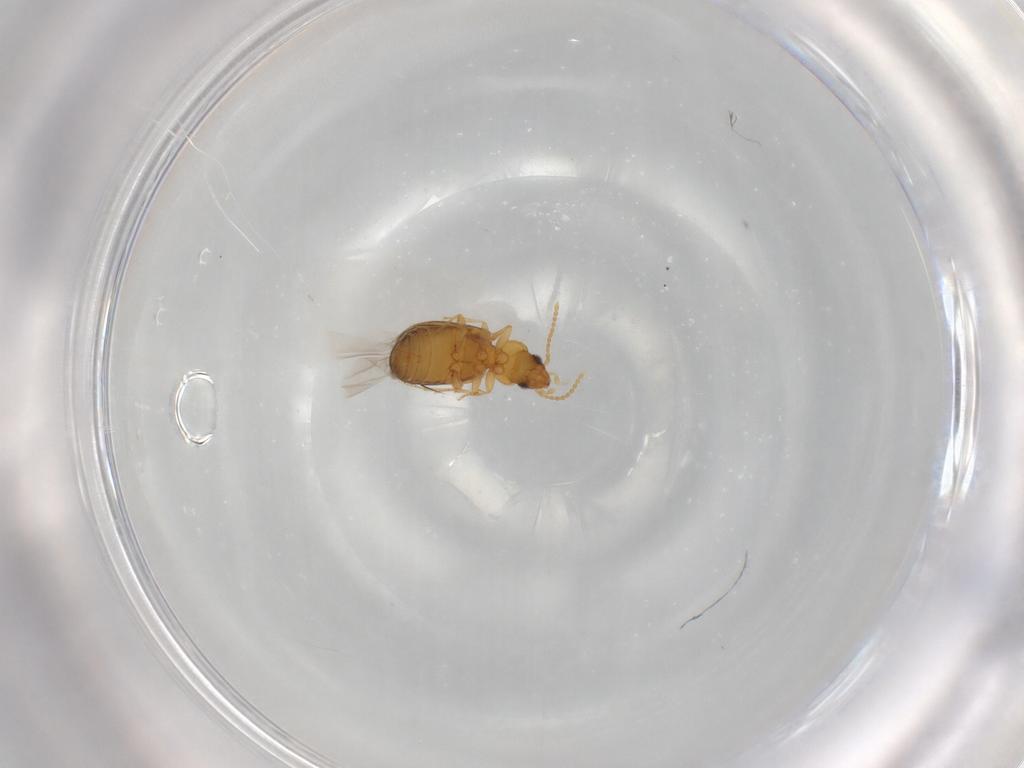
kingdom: Animalia
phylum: Arthropoda
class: Insecta
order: Coleoptera
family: Carabidae
